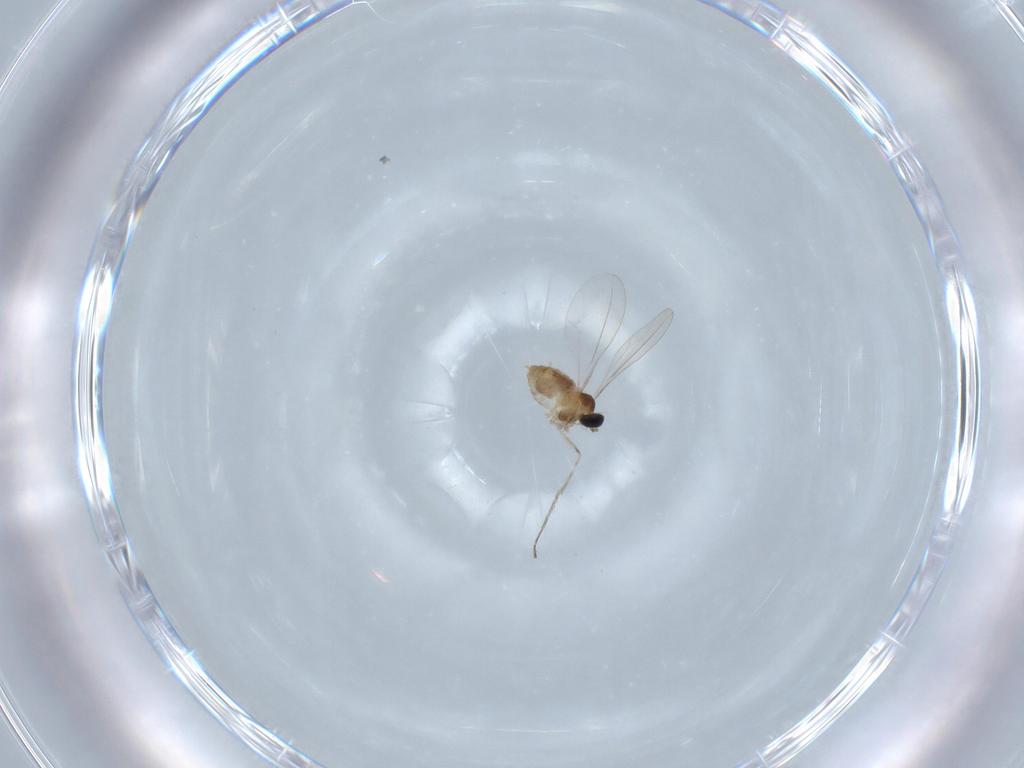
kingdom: Animalia
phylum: Arthropoda
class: Insecta
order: Diptera
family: Cecidomyiidae
